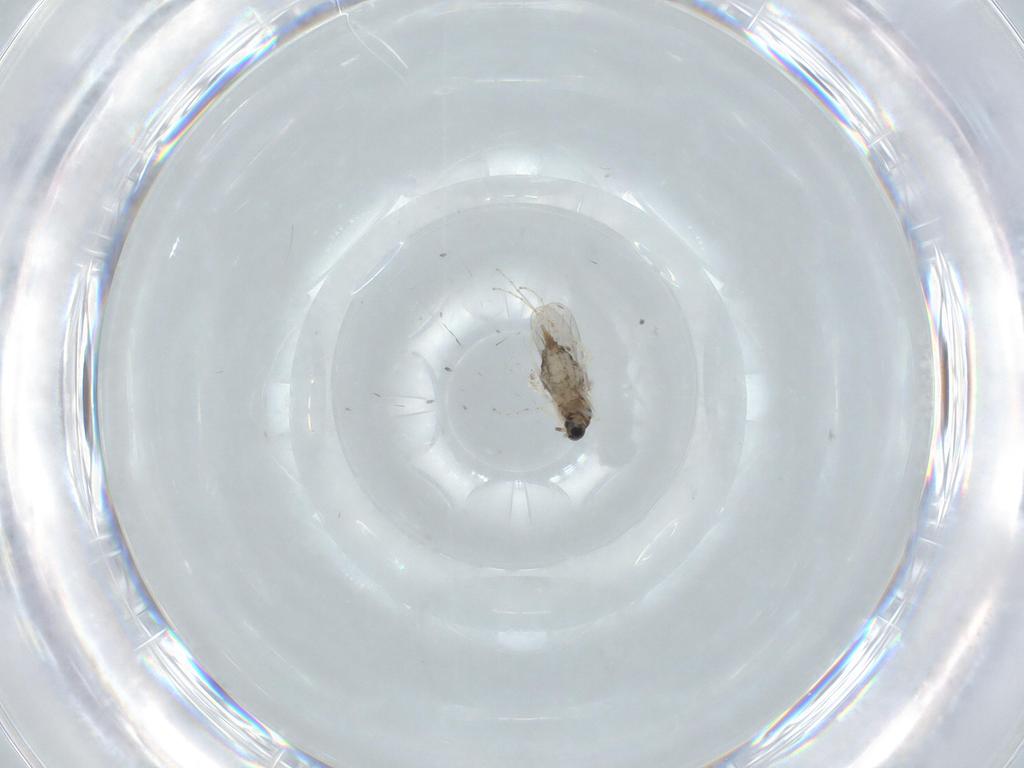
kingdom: Animalia
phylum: Arthropoda
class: Insecta
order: Diptera
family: Cecidomyiidae
